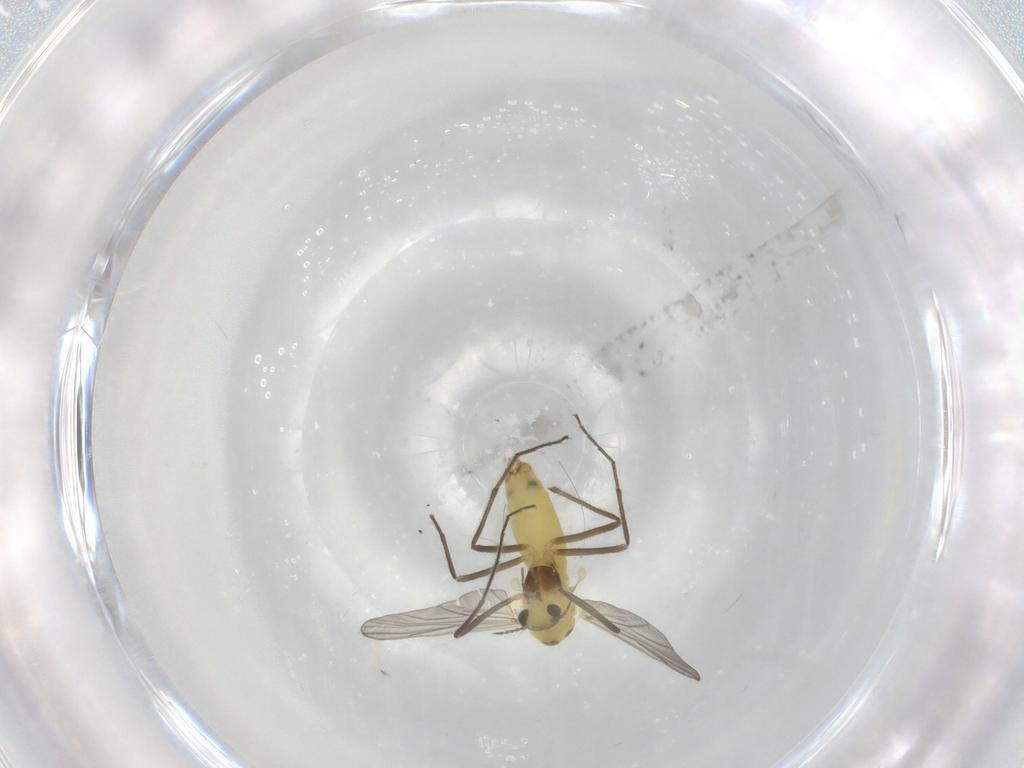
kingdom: Animalia
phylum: Arthropoda
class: Insecta
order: Diptera
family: Chironomidae
